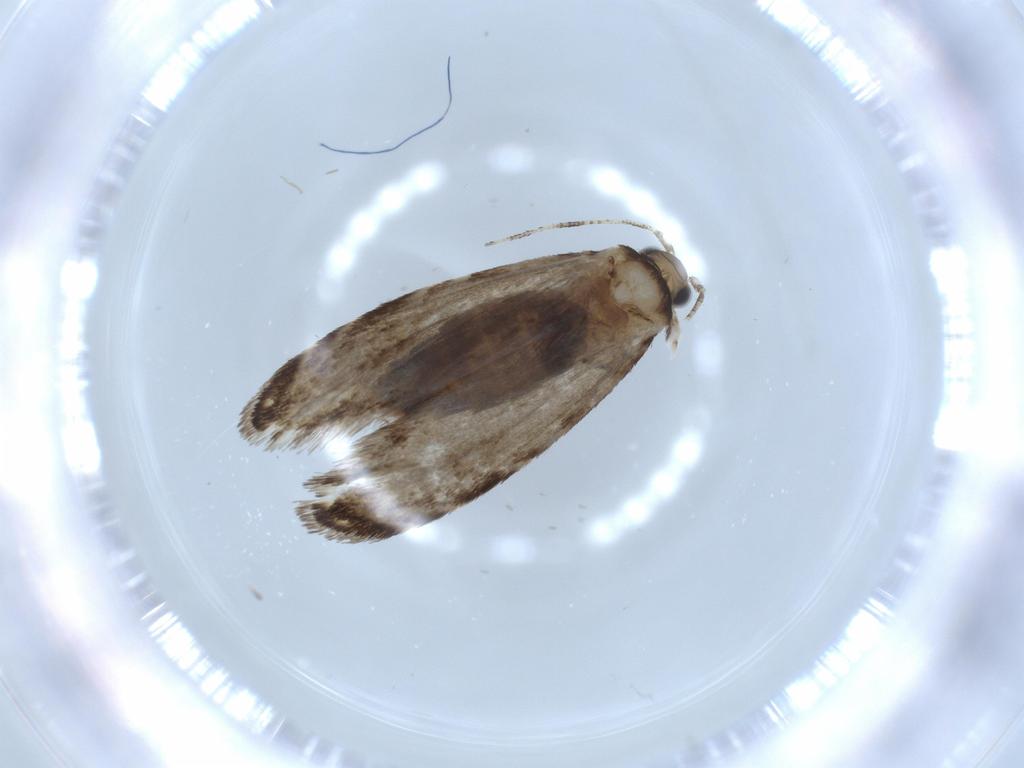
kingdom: Animalia
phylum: Arthropoda
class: Insecta
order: Lepidoptera
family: Tineidae
